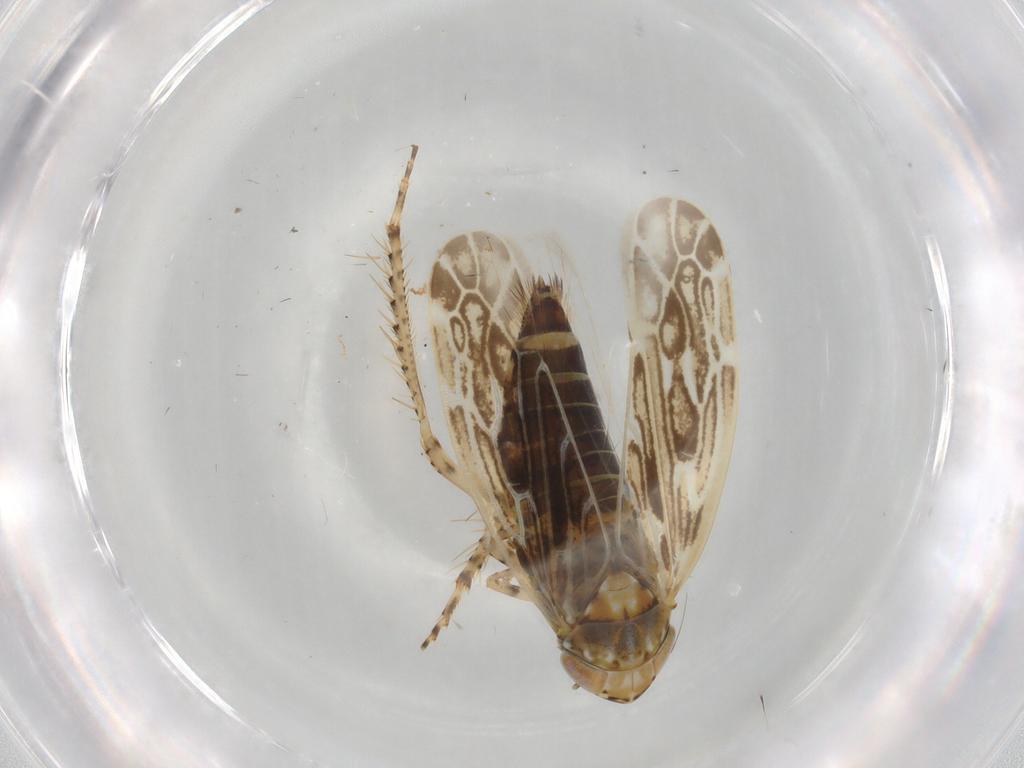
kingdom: Animalia
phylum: Arthropoda
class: Insecta
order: Hemiptera
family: Cicadellidae
